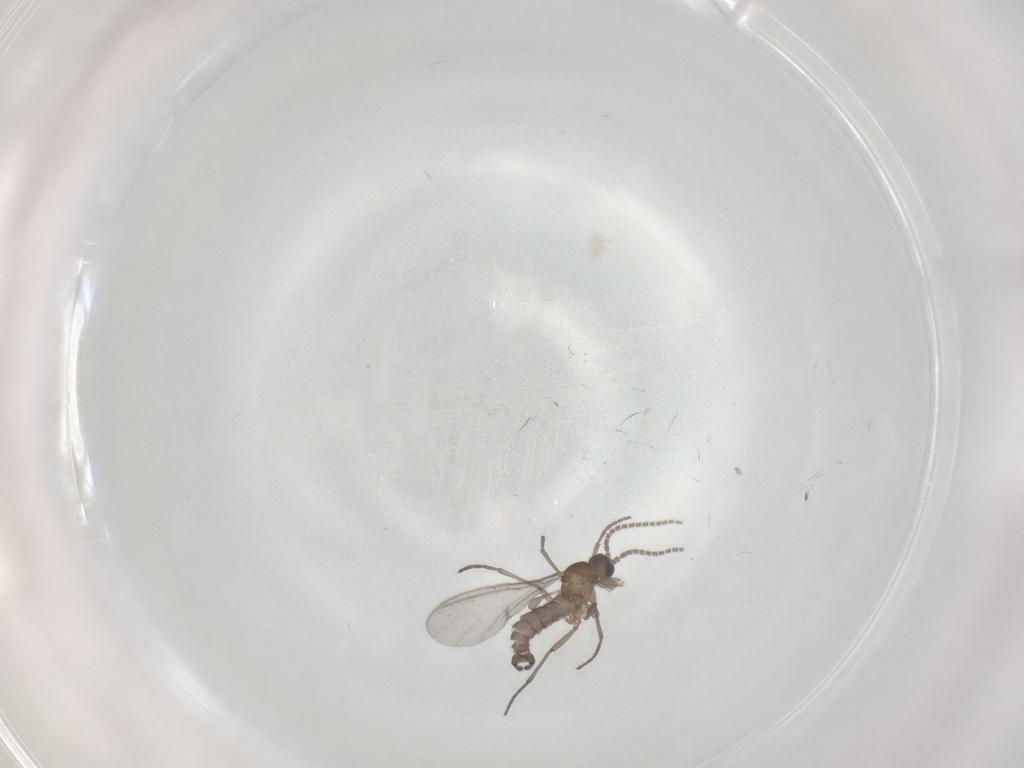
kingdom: Animalia
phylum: Arthropoda
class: Insecta
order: Diptera
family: Sciaridae
